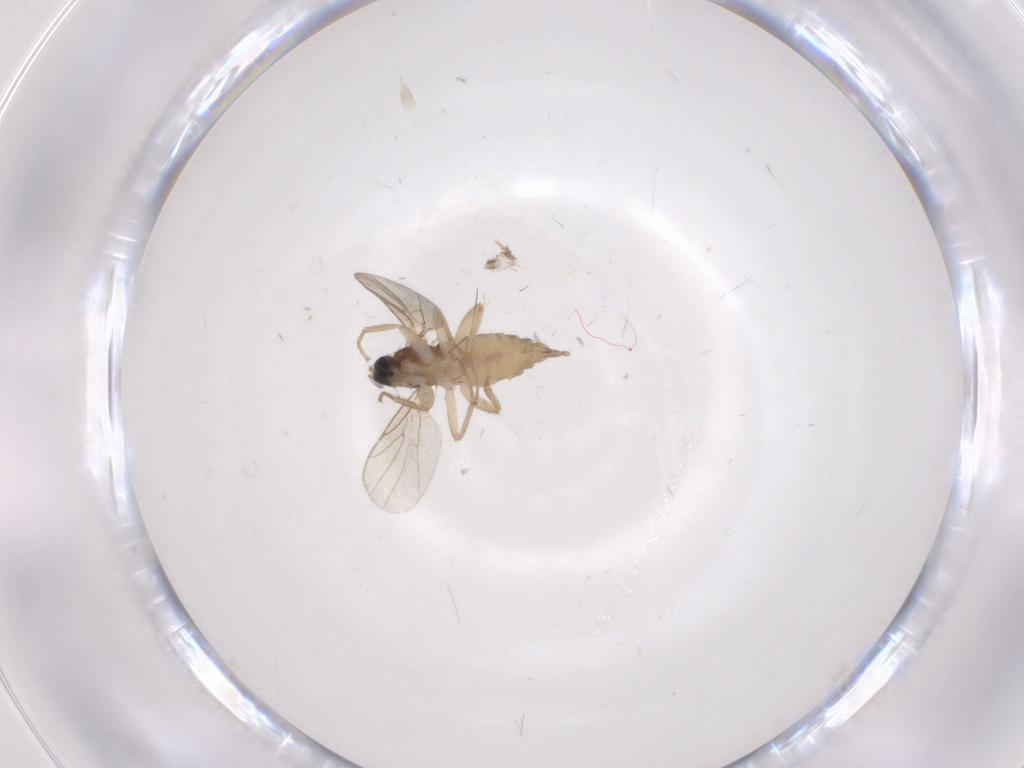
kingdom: Animalia
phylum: Arthropoda
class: Insecta
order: Diptera
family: Hybotidae
